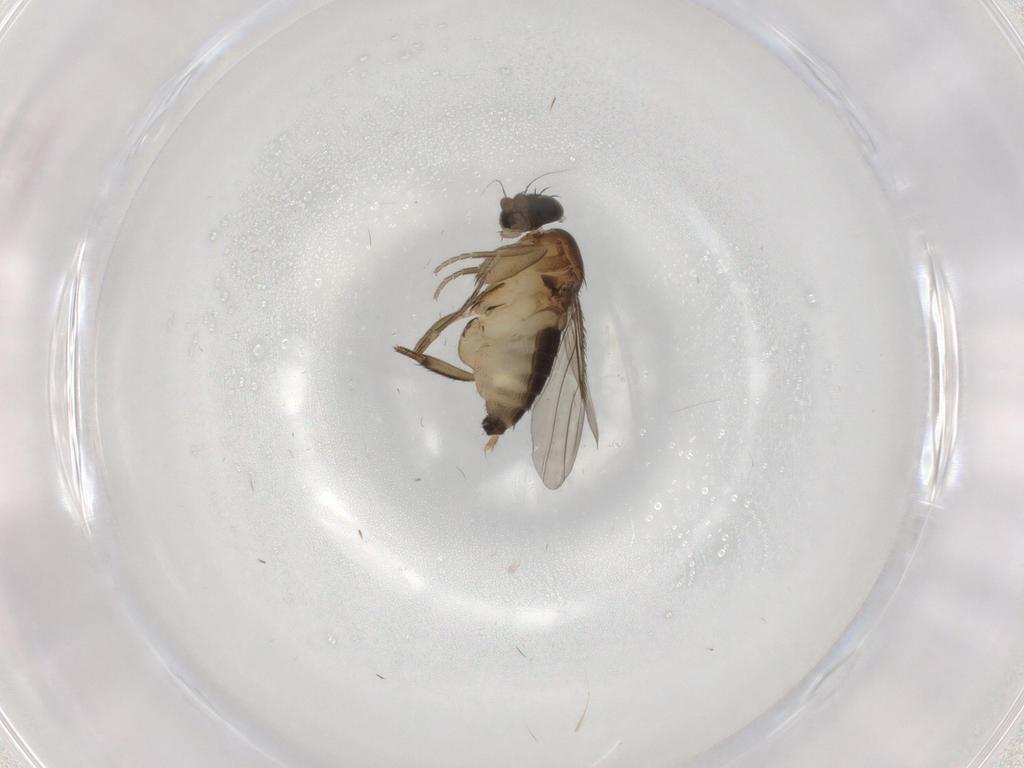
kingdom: Animalia
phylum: Arthropoda
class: Insecta
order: Diptera
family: Phoridae
